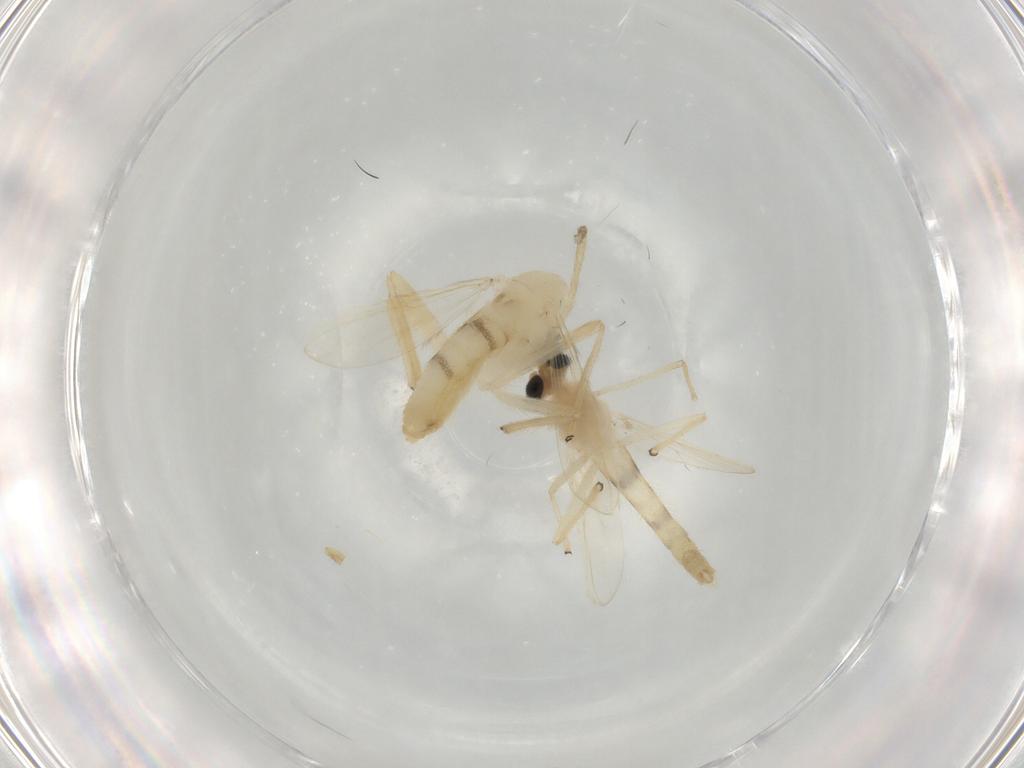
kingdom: Animalia
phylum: Arthropoda
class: Insecta
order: Diptera
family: Chironomidae
